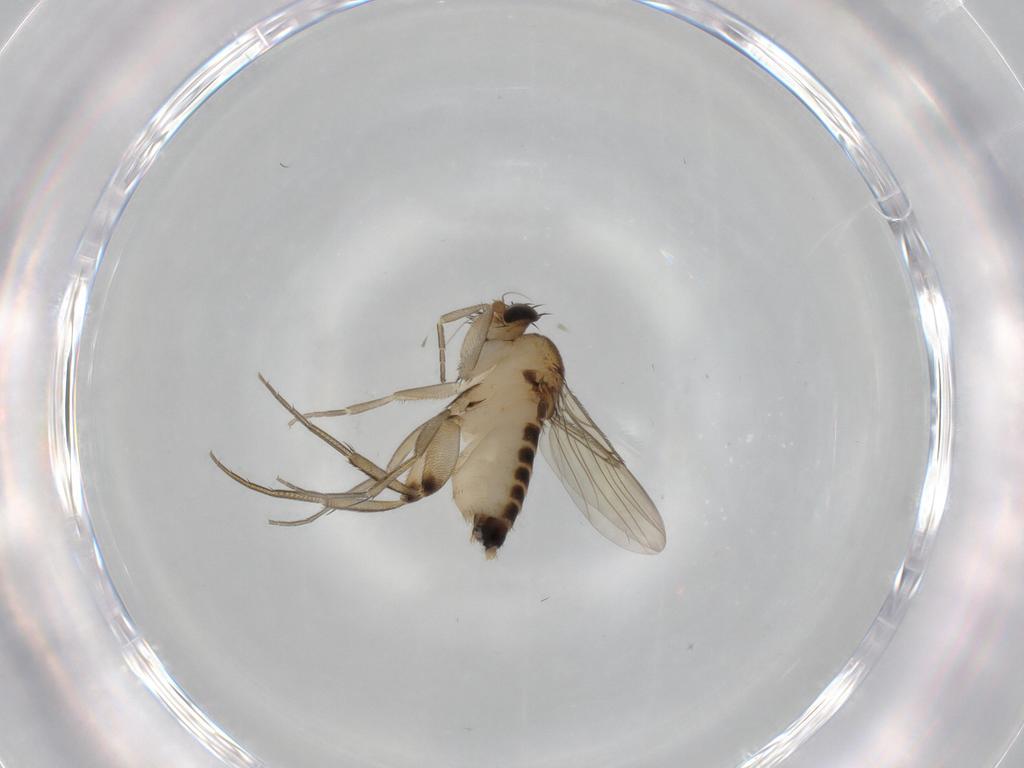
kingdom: Animalia
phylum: Arthropoda
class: Insecta
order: Diptera
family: Phoridae
